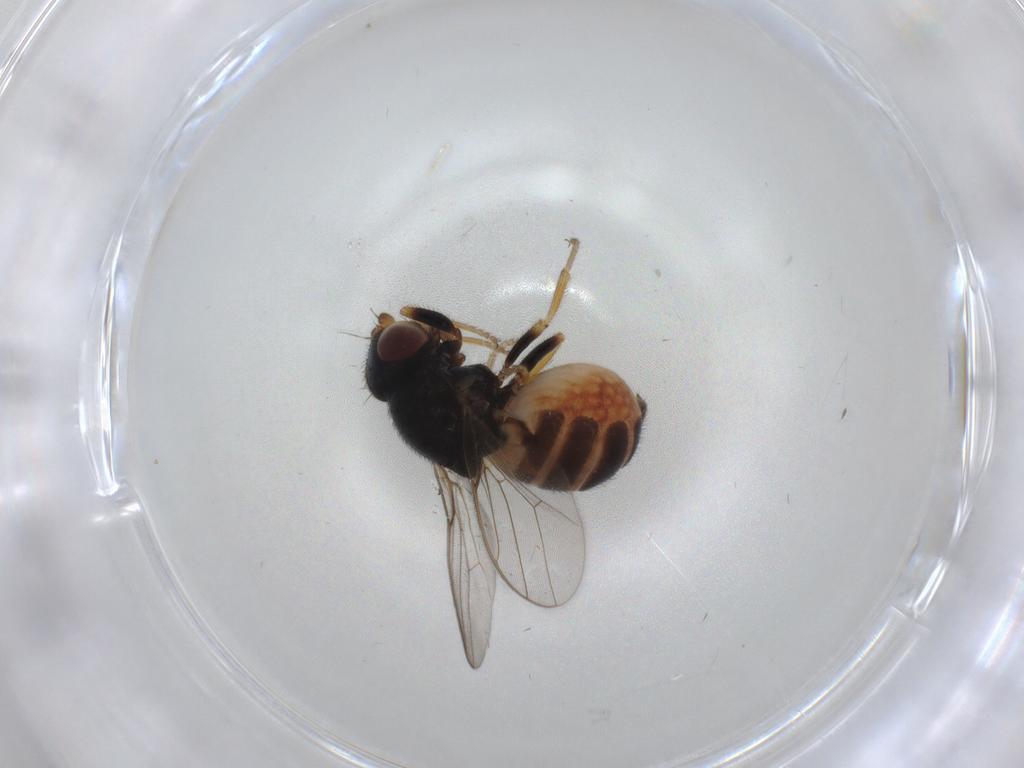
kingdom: Animalia
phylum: Arthropoda
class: Insecta
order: Diptera
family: Chloropidae
